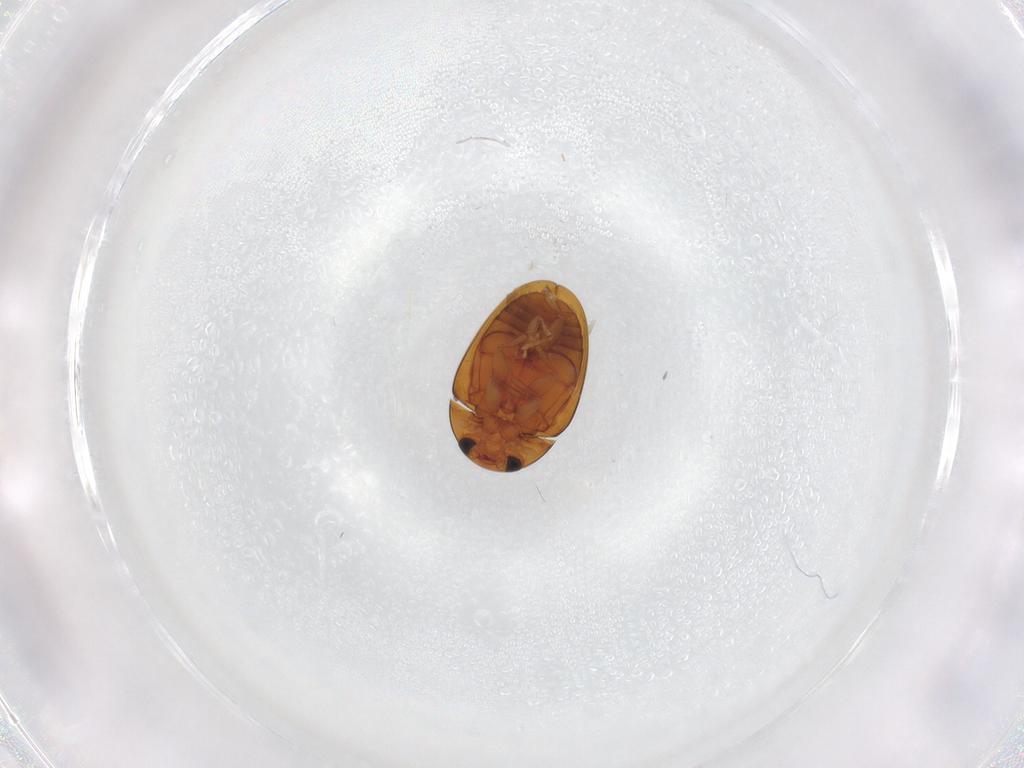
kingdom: Animalia
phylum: Arthropoda
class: Insecta
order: Coleoptera
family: Phalacridae
